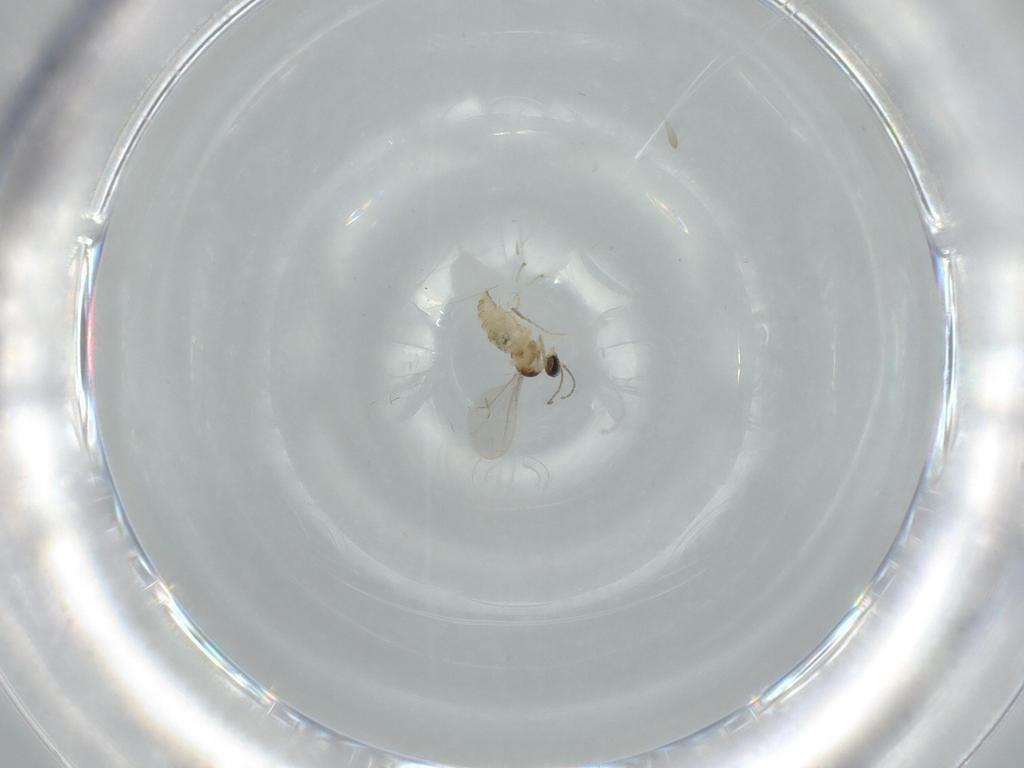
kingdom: Animalia
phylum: Arthropoda
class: Insecta
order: Diptera
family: Cecidomyiidae
